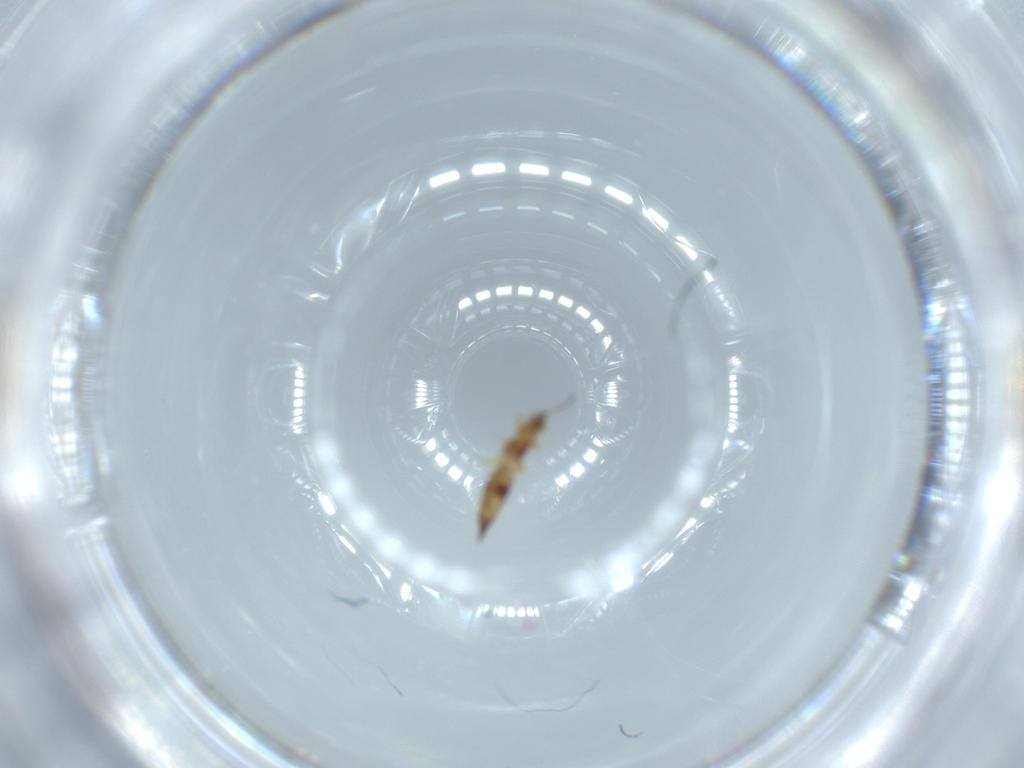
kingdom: Animalia
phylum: Arthropoda
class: Insecta
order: Thysanoptera
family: Phlaeothripidae
